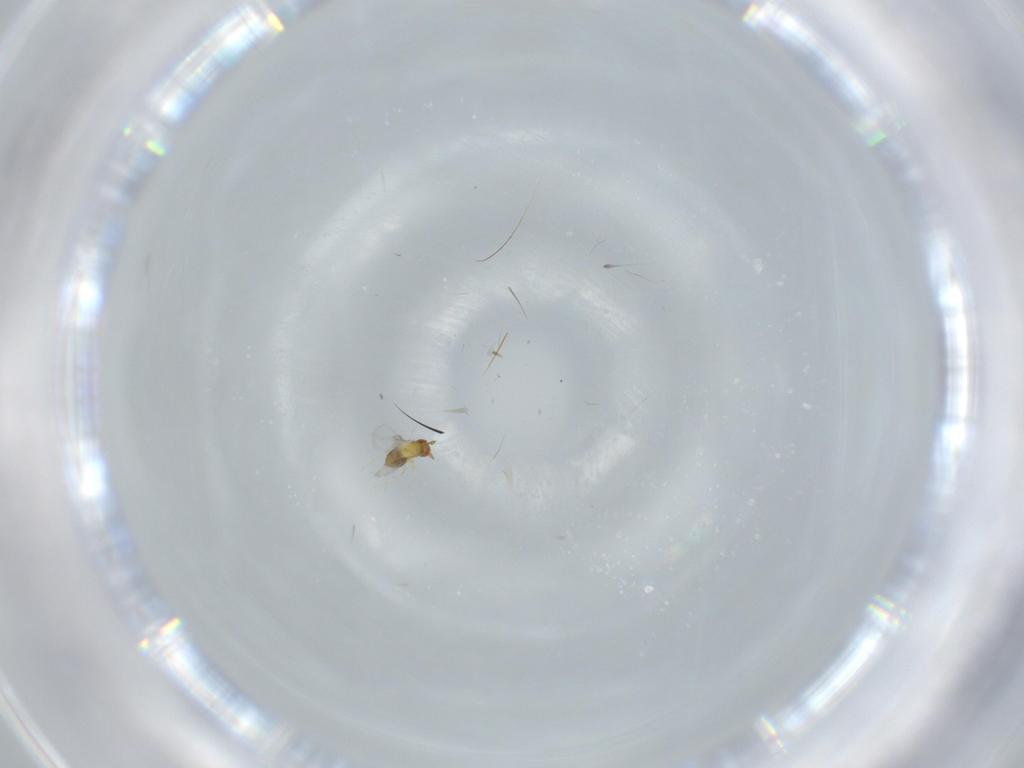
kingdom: Animalia
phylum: Arthropoda
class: Insecta
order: Hymenoptera
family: Trichogrammatidae
